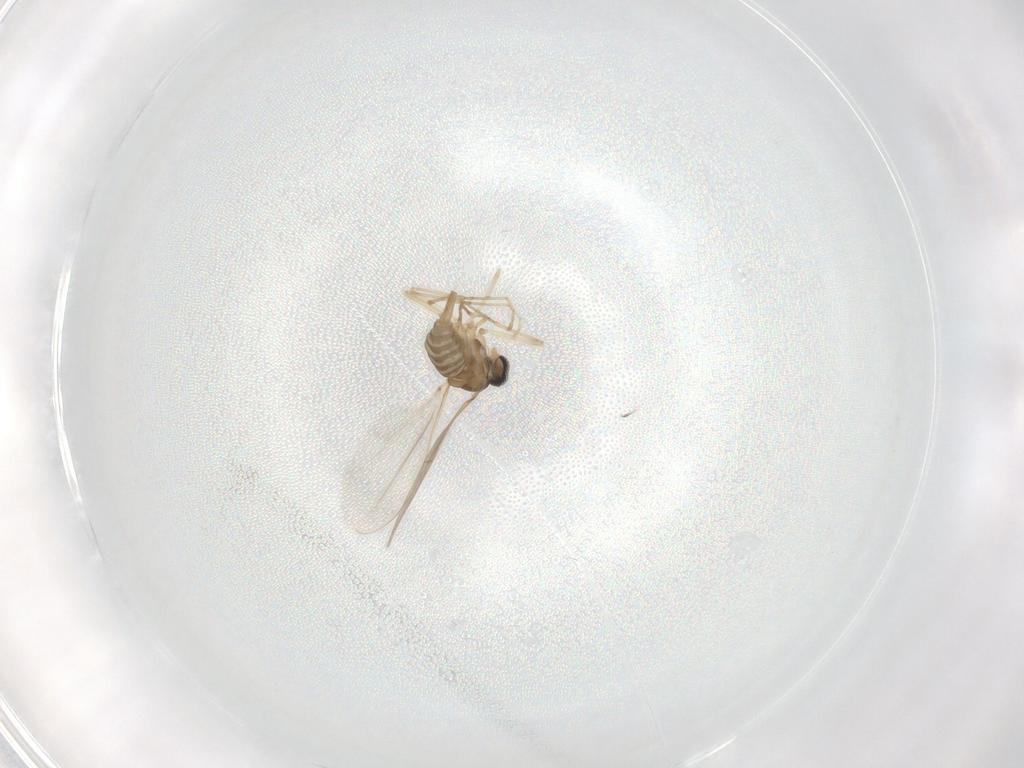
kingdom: Animalia
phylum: Arthropoda
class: Insecta
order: Diptera
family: Cecidomyiidae
